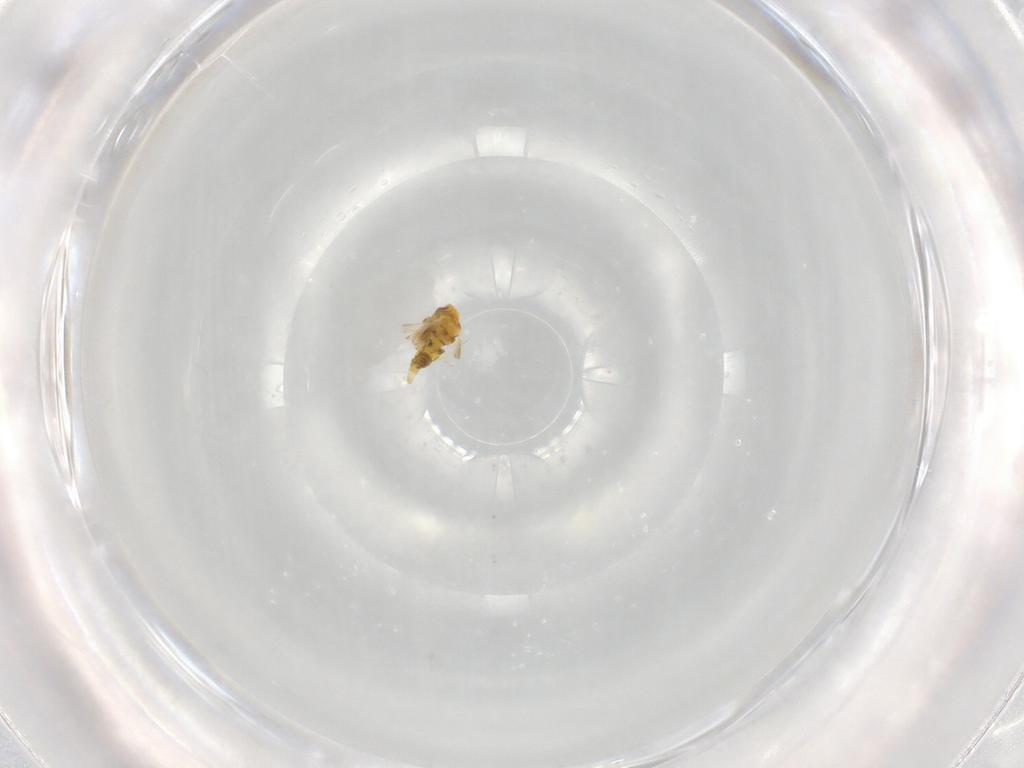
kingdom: Animalia
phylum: Arthropoda
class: Insecta
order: Hemiptera
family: Aleyrodidae
